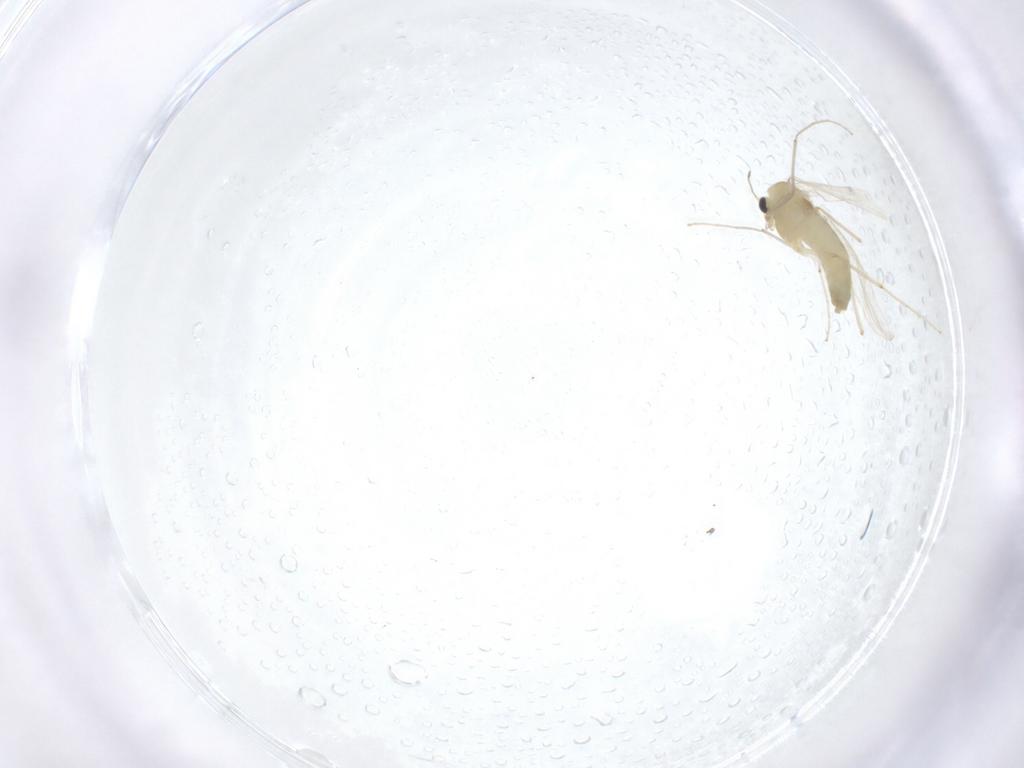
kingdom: Animalia
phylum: Arthropoda
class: Insecta
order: Diptera
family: Chironomidae
